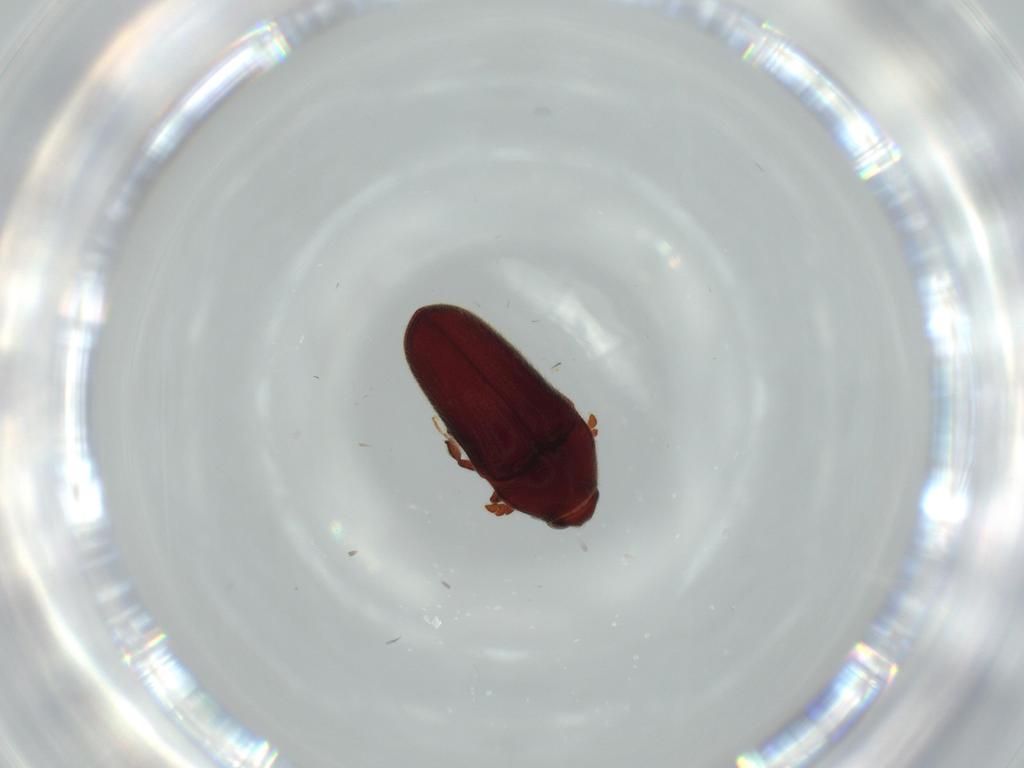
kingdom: Animalia
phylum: Arthropoda
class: Insecta
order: Coleoptera
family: Throscidae
